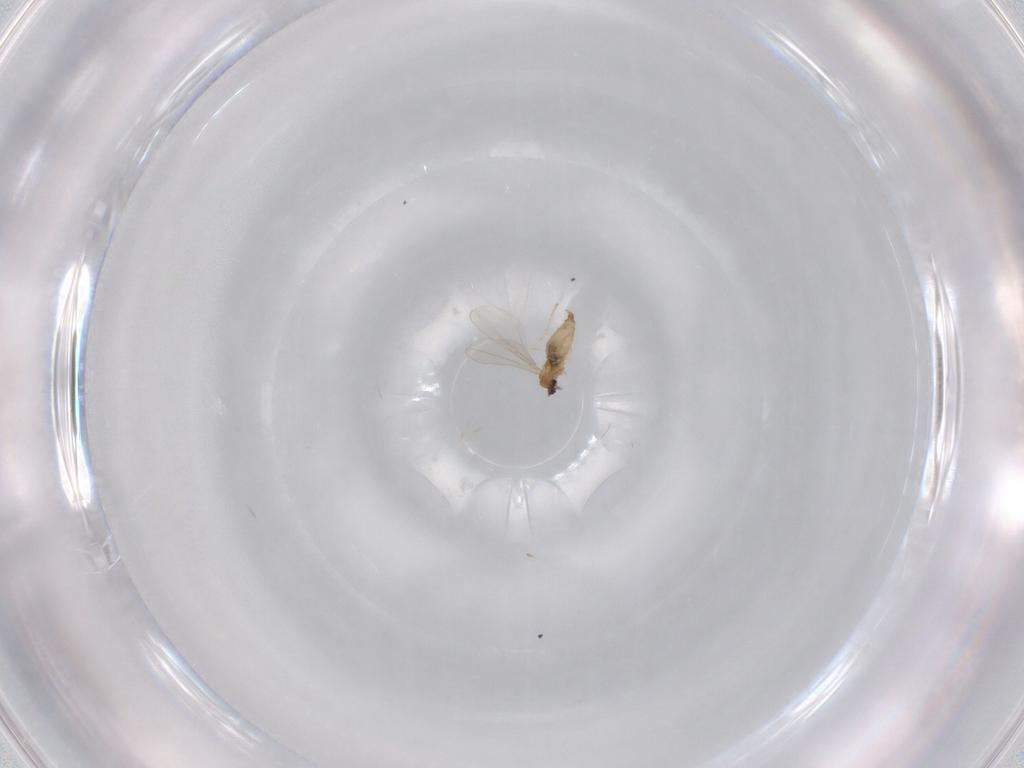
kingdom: Animalia
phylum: Arthropoda
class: Insecta
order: Diptera
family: Cecidomyiidae
